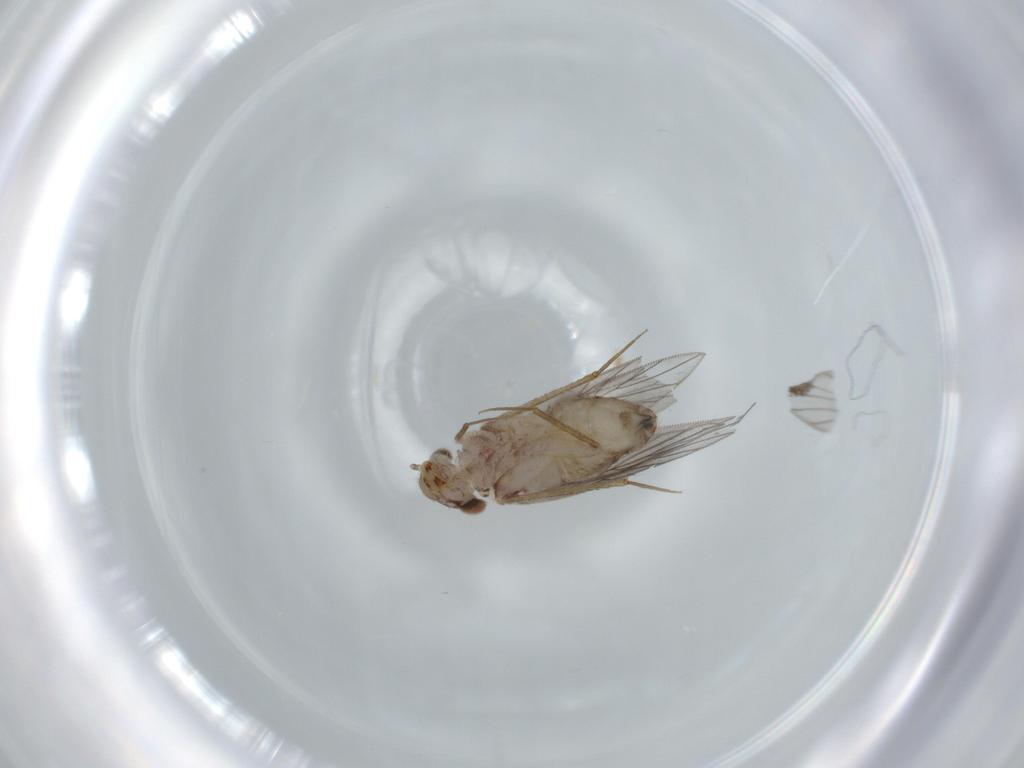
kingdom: Animalia
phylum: Arthropoda
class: Insecta
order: Psocodea
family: Lepidopsocidae
